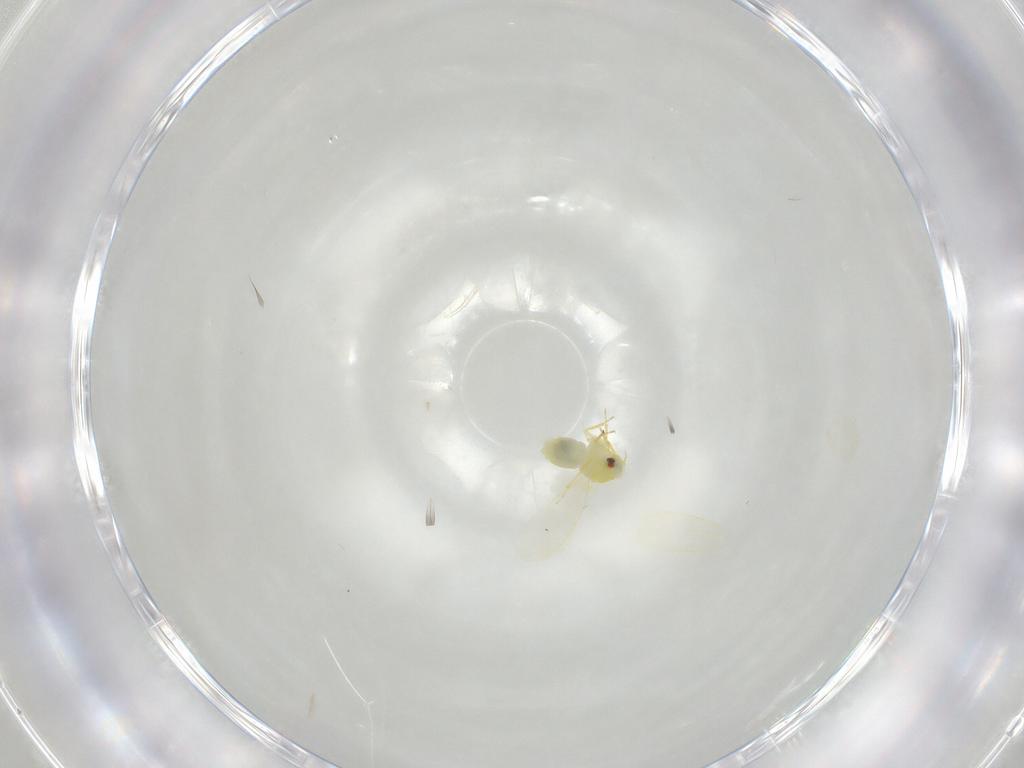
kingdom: Animalia
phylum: Arthropoda
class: Insecta
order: Hemiptera
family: Aleyrodidae
